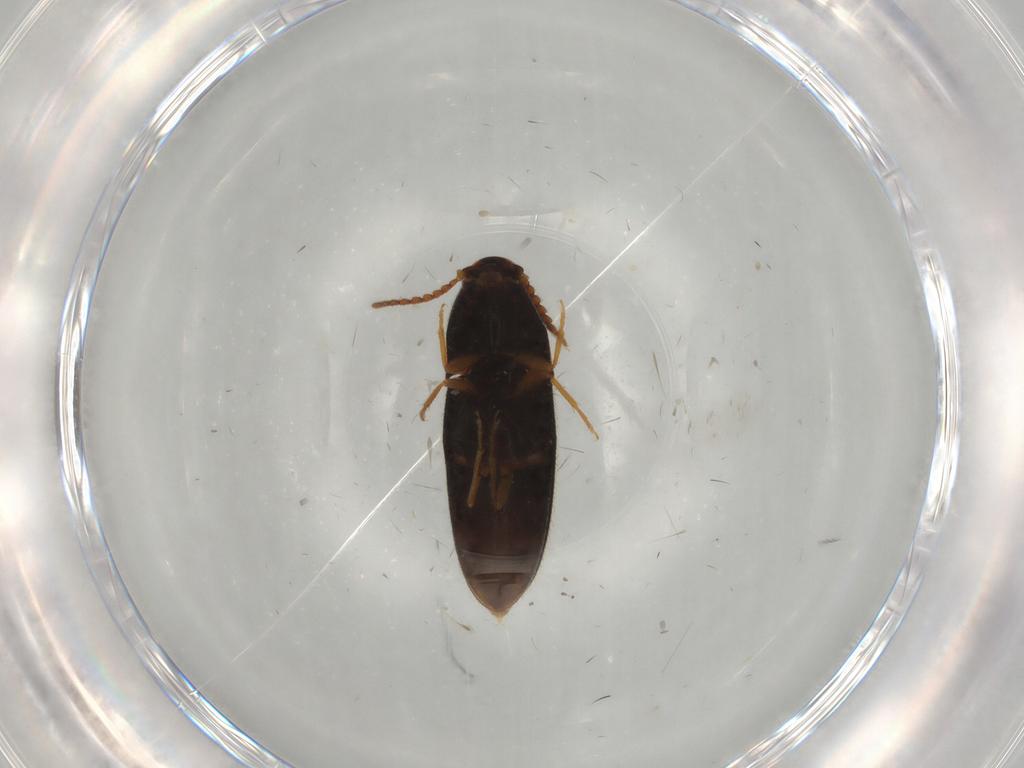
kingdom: Animalia
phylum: Arthropoda
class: Insecta
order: Coleoptera
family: Elateridae
